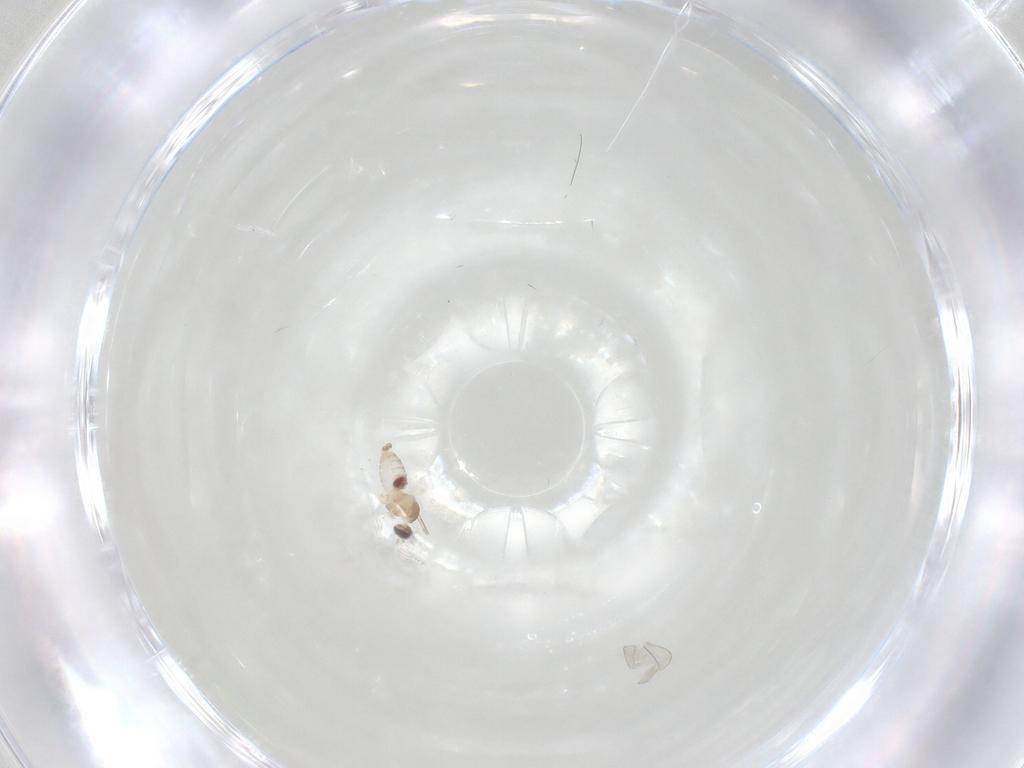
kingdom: Animalia
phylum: Arthropoda
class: Insecta
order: Diptera
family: Cecidomyiidae
